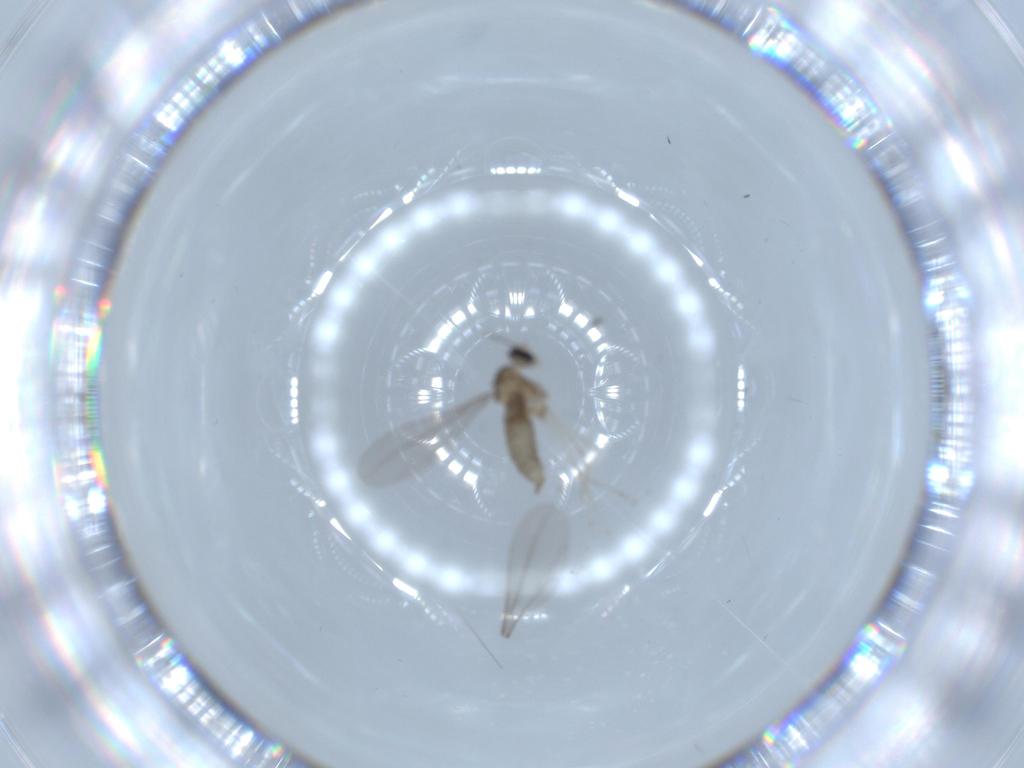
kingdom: Animalia
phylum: Arthropoda
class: Insecta
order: Diptera
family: Cecidomyiidae
